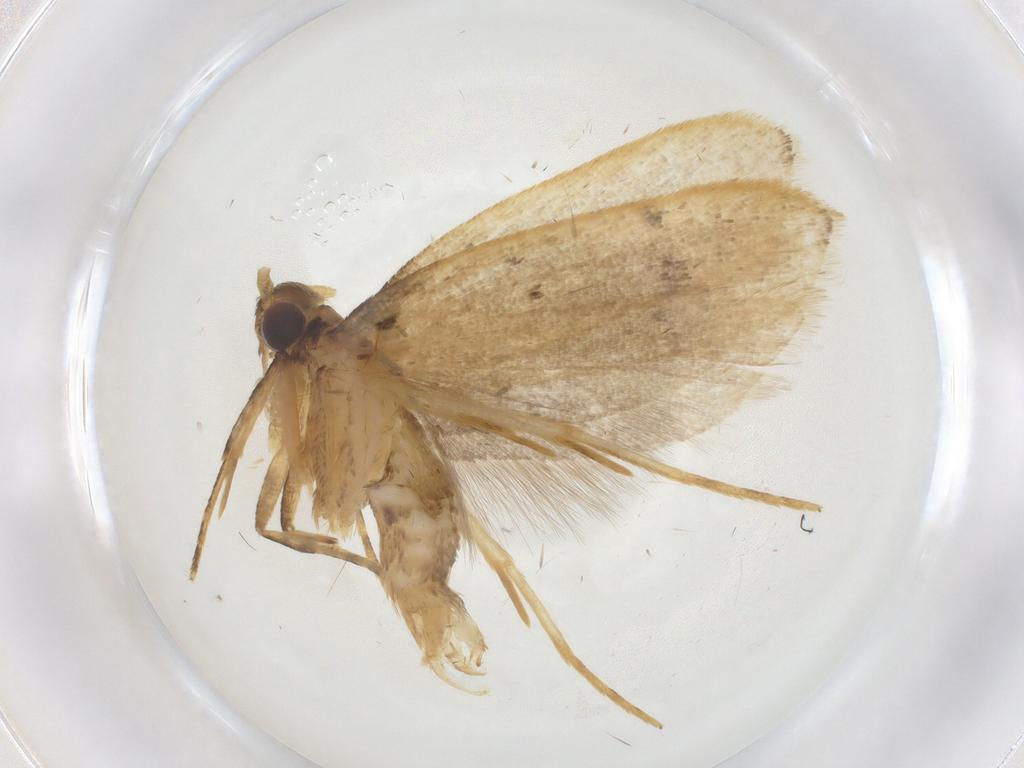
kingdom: Animalia
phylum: Arthropoda
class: Insecta
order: Lepidoptera
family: Lecithoceridae
